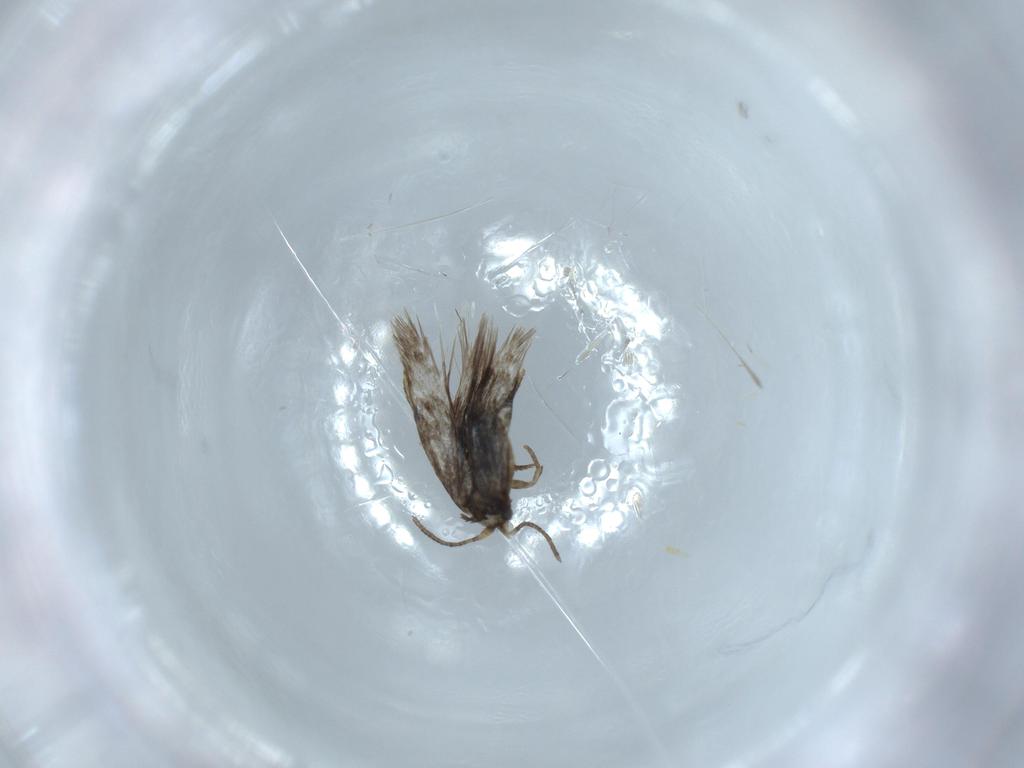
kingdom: Animalia
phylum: Arthropoda
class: Insecta
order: Lepidoptera
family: Nepticulidae
